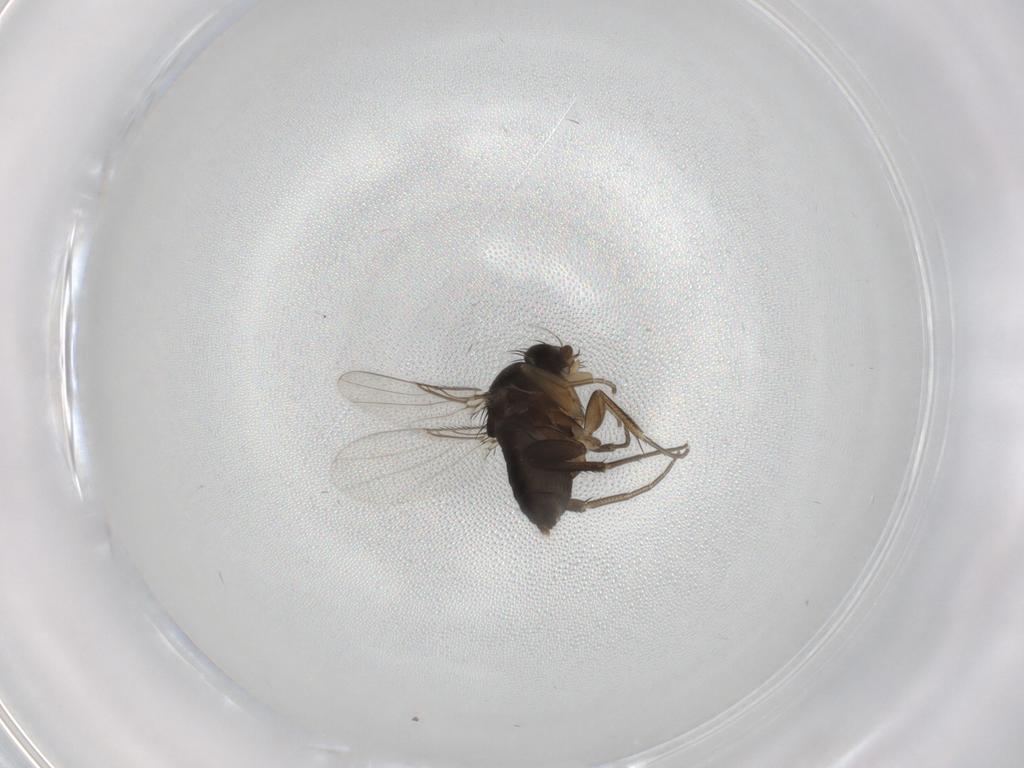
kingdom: Animalia
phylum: Arthropoda
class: Insecta
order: Diptera
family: Phoridae
